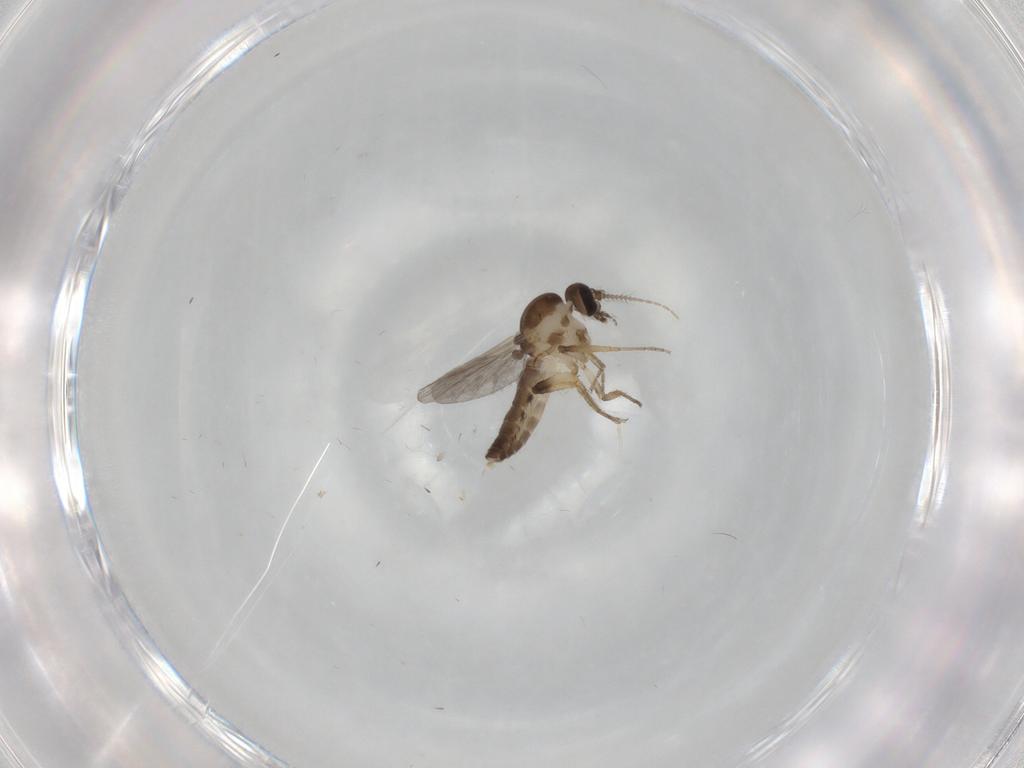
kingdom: Animalia
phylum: Arthropoda
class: Insecta
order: Diptera
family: Ceratopogonidae
